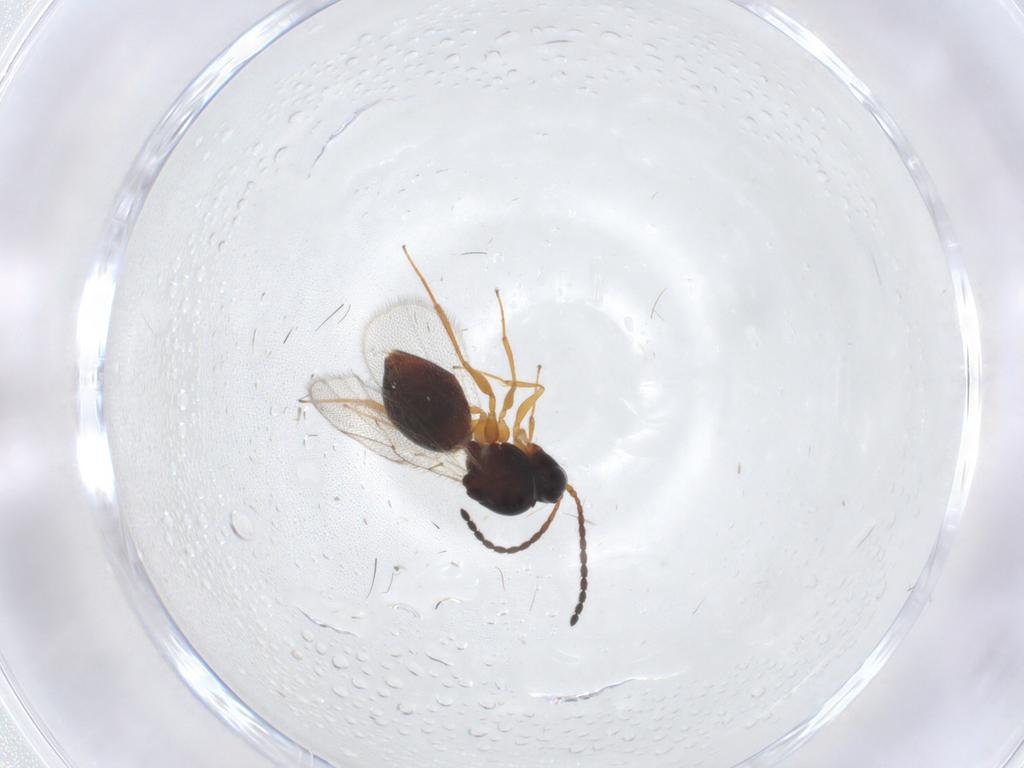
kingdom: Animalia
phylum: Arthropoda
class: Insecta
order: Hymenoptera
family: Figitidae
